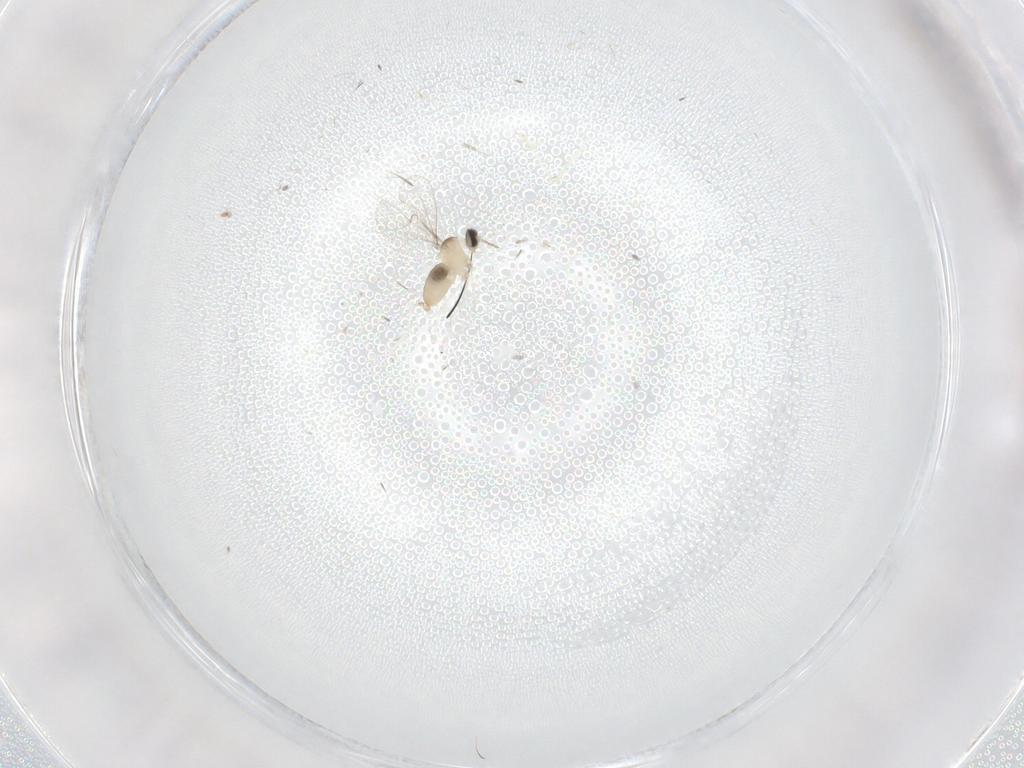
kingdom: Animalia
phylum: Arthropoda
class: Insecta
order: Diptera
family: Cecidomyiidae
